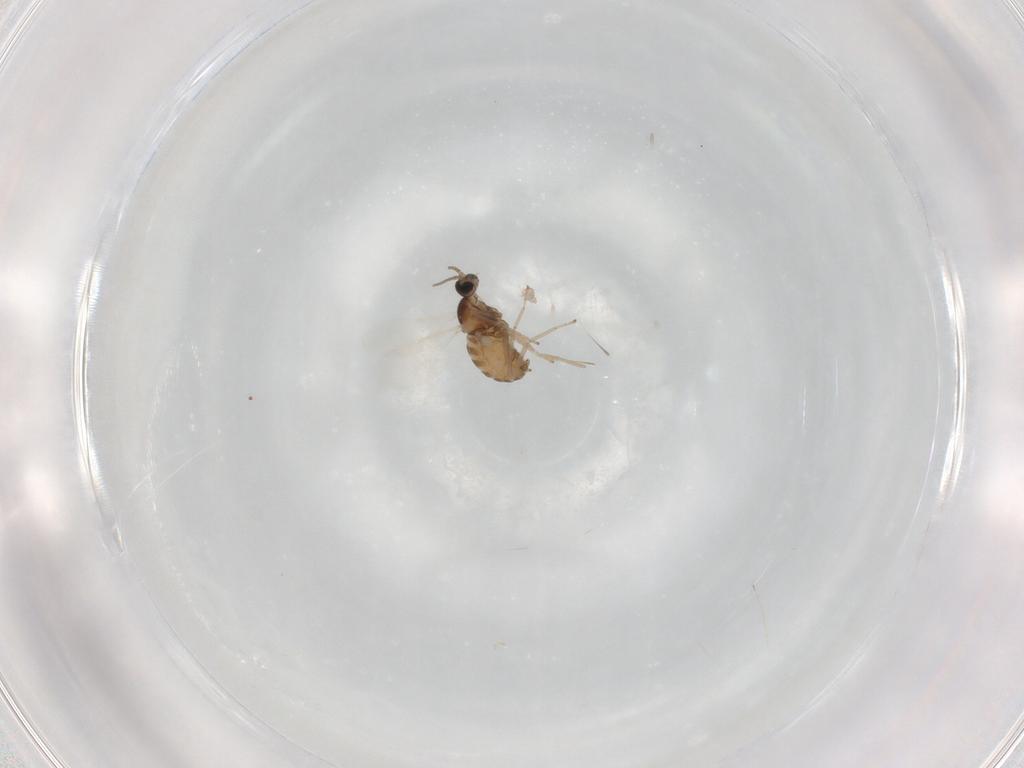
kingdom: Animalia
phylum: Arthropoda
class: Insecta
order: Diptera
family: Cecidomyiidae
